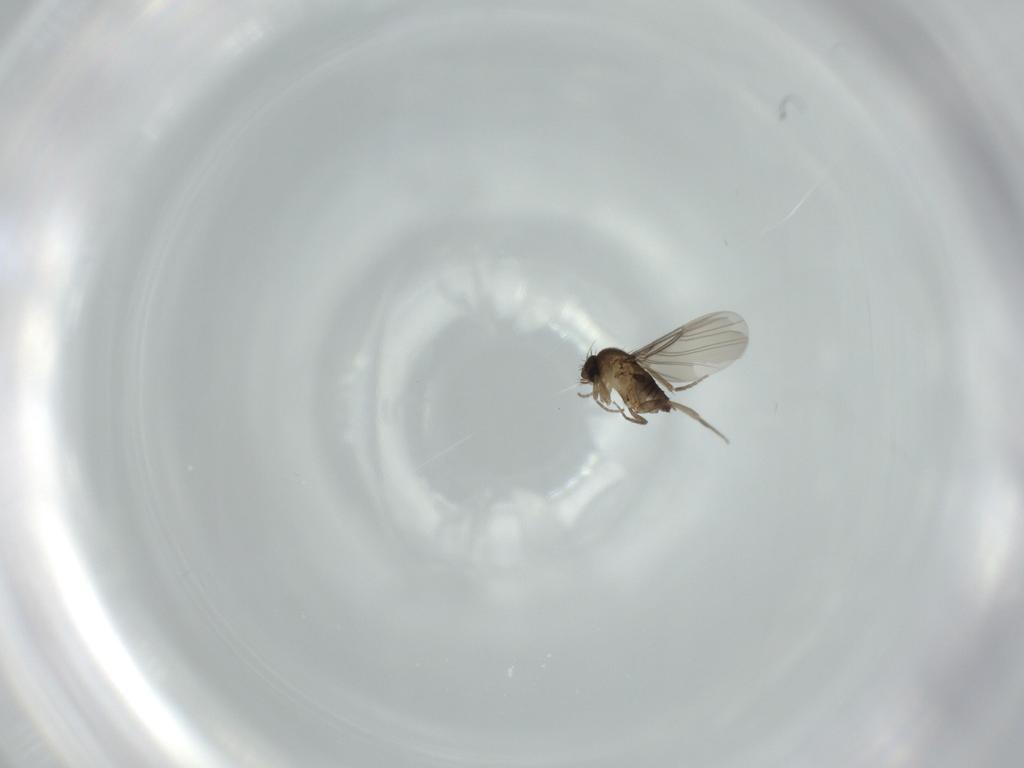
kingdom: Animalia
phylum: Arthropoda
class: Insecta
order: Diptera
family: Phoridae
